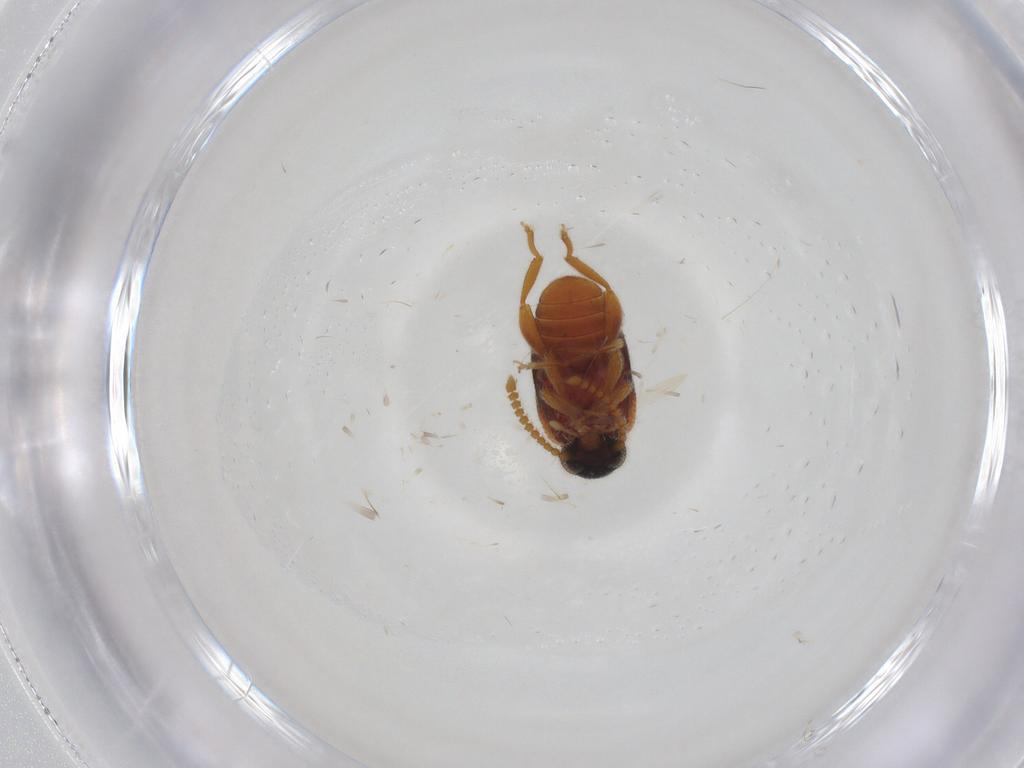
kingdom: Animalia
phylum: Arthropoda
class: Insecta
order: Coleoptera
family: Aderidae
